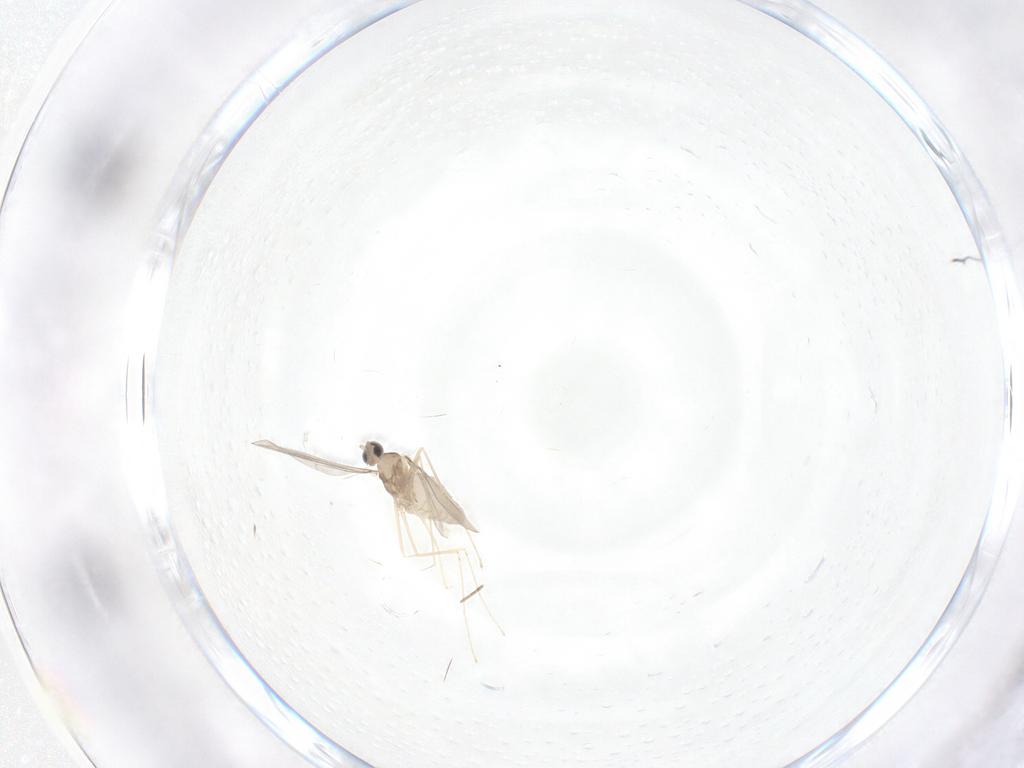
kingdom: Animalia
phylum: Arthropoda
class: Insecta
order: Diptera
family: Cecidomyiidae
